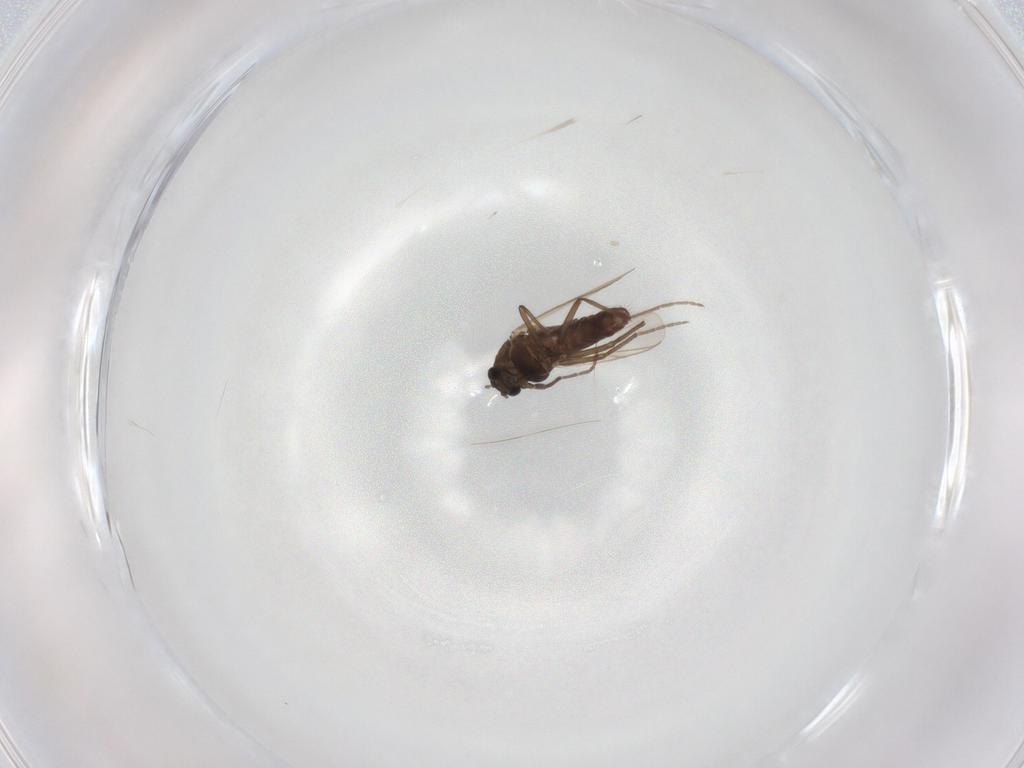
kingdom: Animalia
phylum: Arthropoda
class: Insecta
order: Diptera
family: Chironomidae
